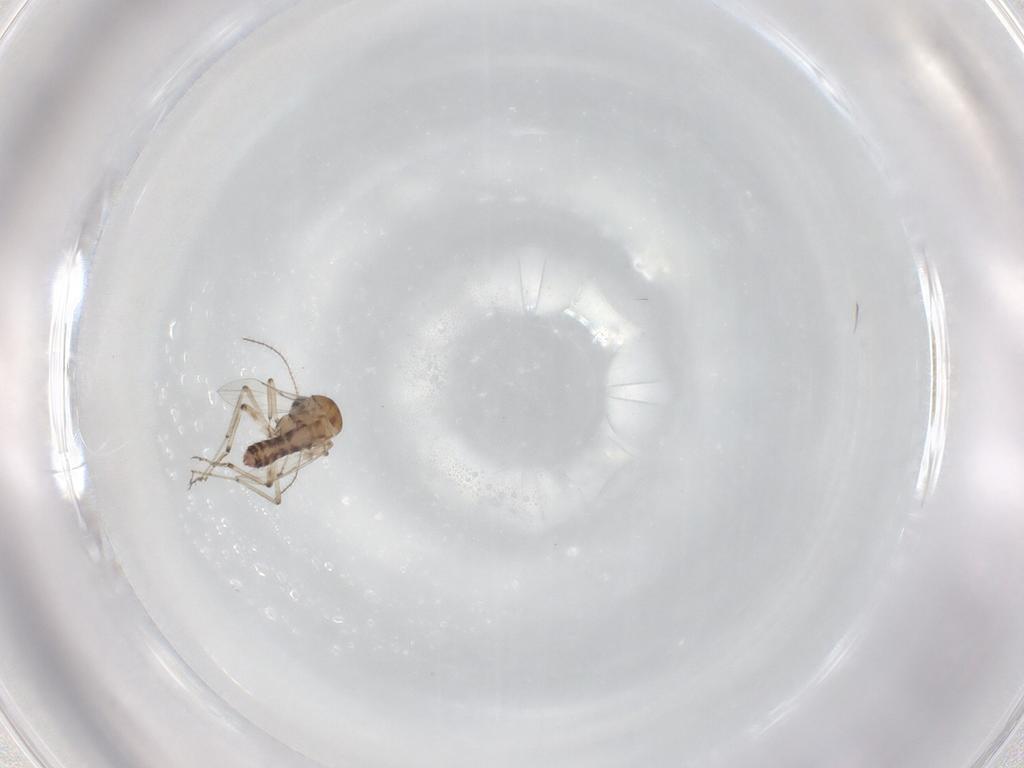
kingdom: Animalia
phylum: Arthropoda
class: Insecta
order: Diptera
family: Ceratopogonidae
